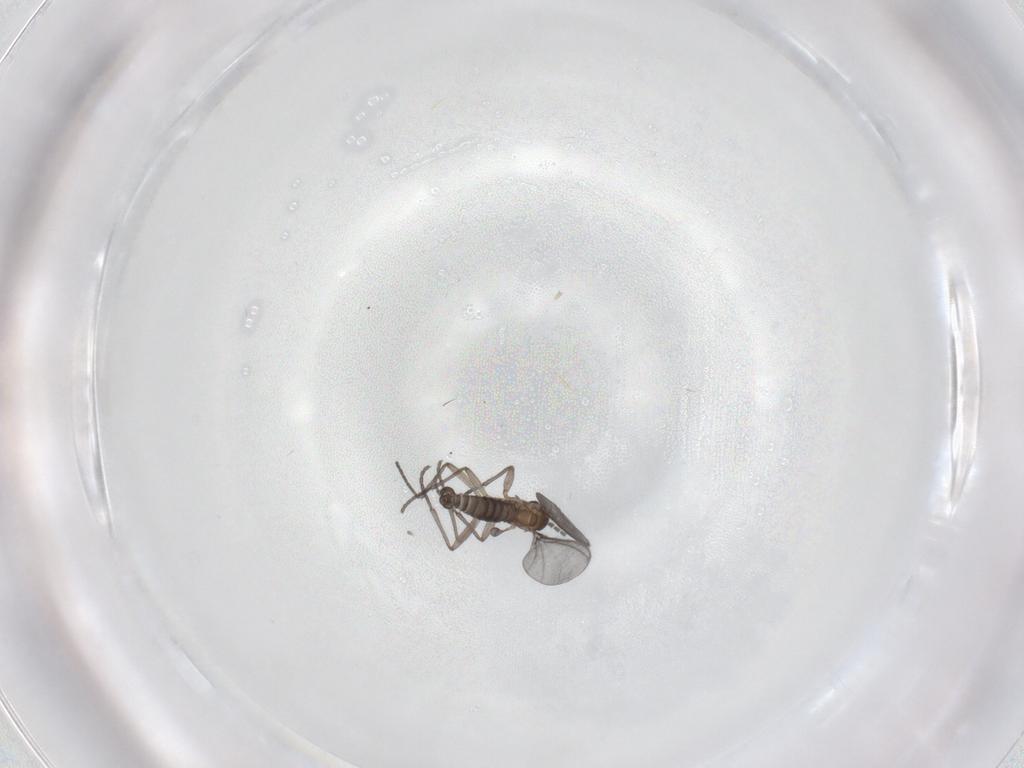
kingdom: Animalia
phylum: Arthropoda
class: Insecta
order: Diptera
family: Sciaridae
